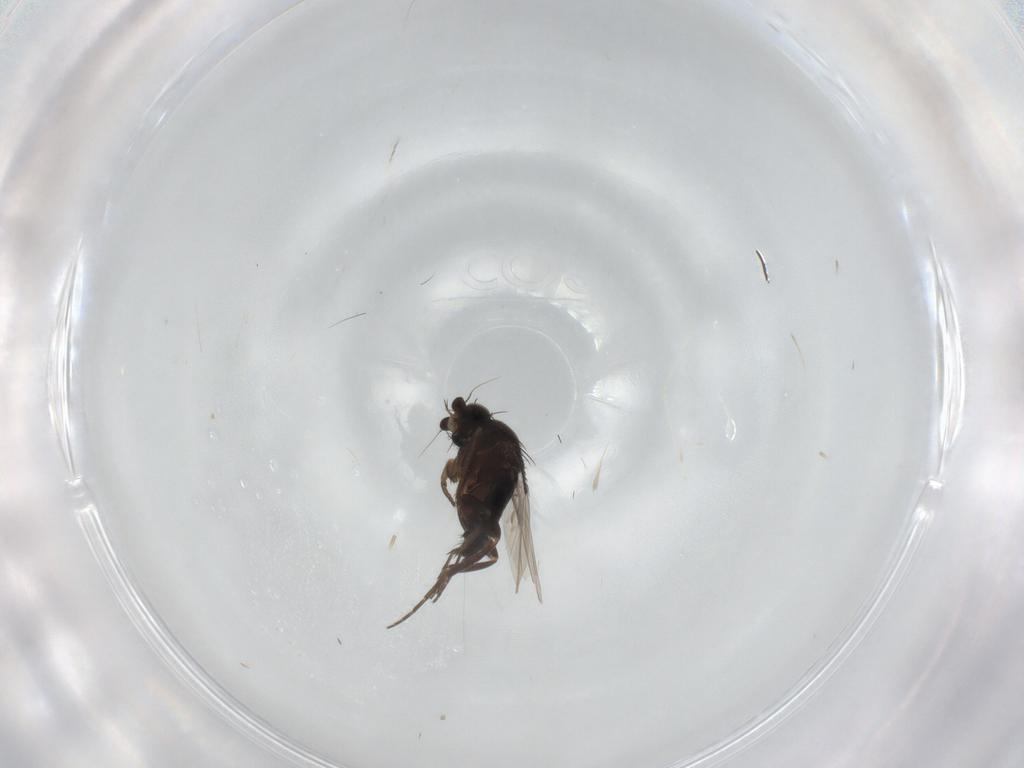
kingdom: Animalia
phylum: Arthropoda
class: Insecta
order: Diptera
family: Phoridae
